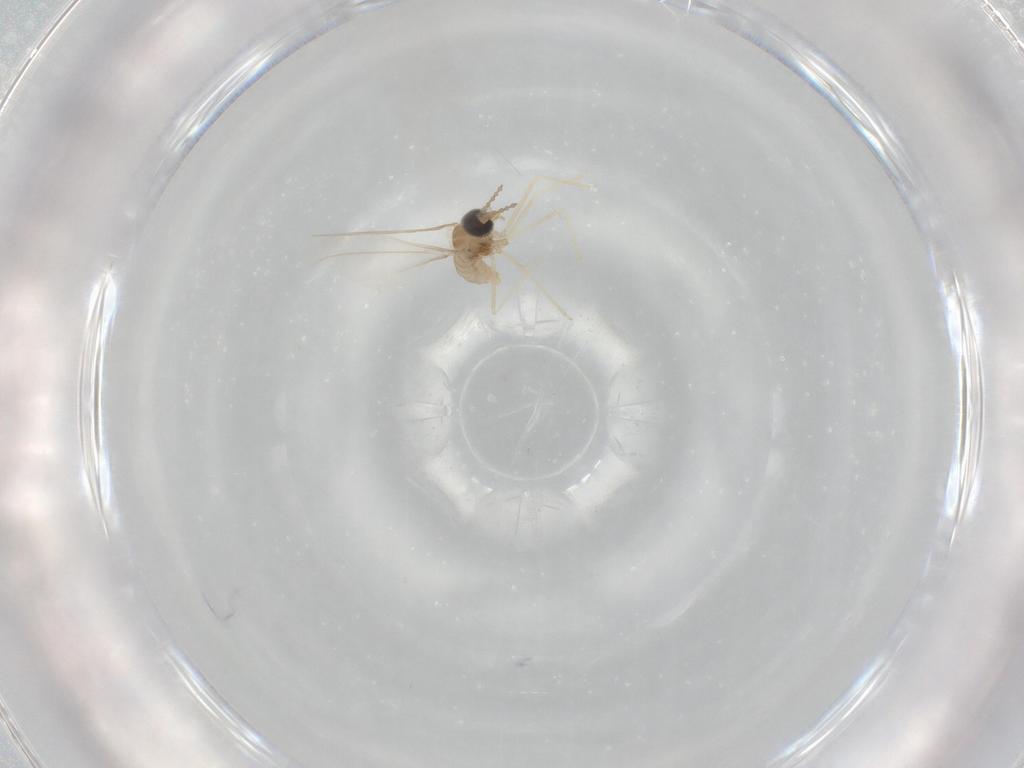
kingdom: Animalia
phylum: Arthropoda
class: Insecta
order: Diptera
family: Cecidomyiidae
